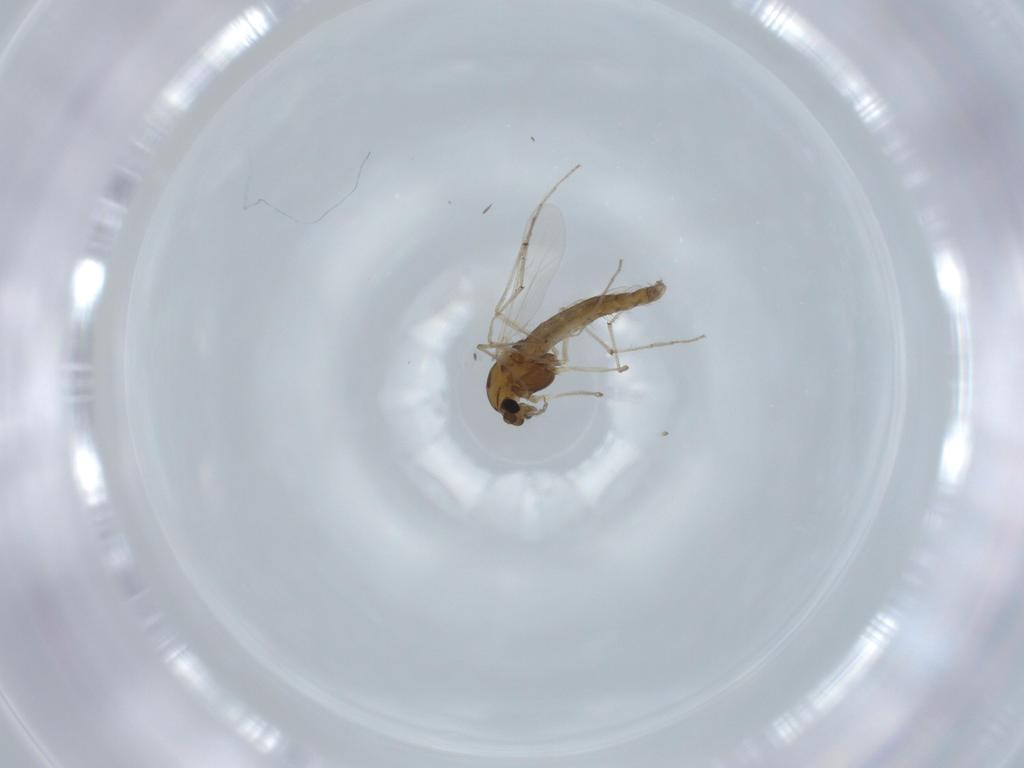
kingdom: Animalia
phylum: Arthropoda
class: Insecta
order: Diptera
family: Chironomidae
